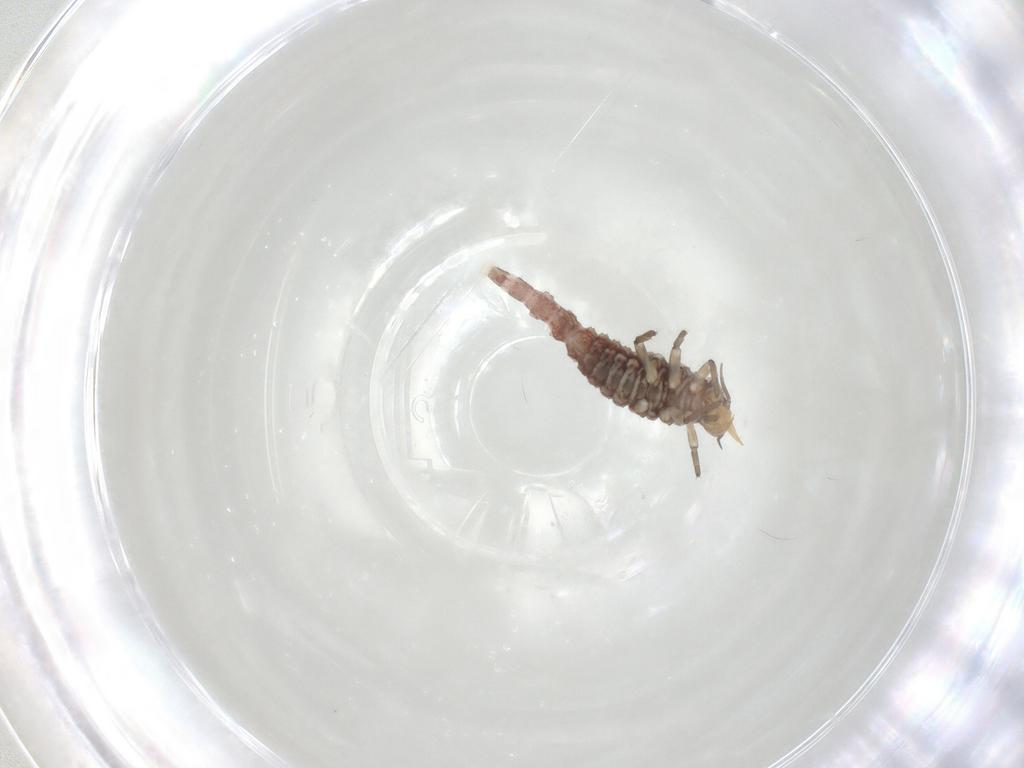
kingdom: Animalia
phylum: Arthropoda
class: Insecta
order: Neuroptera
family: Hemerobiidae
